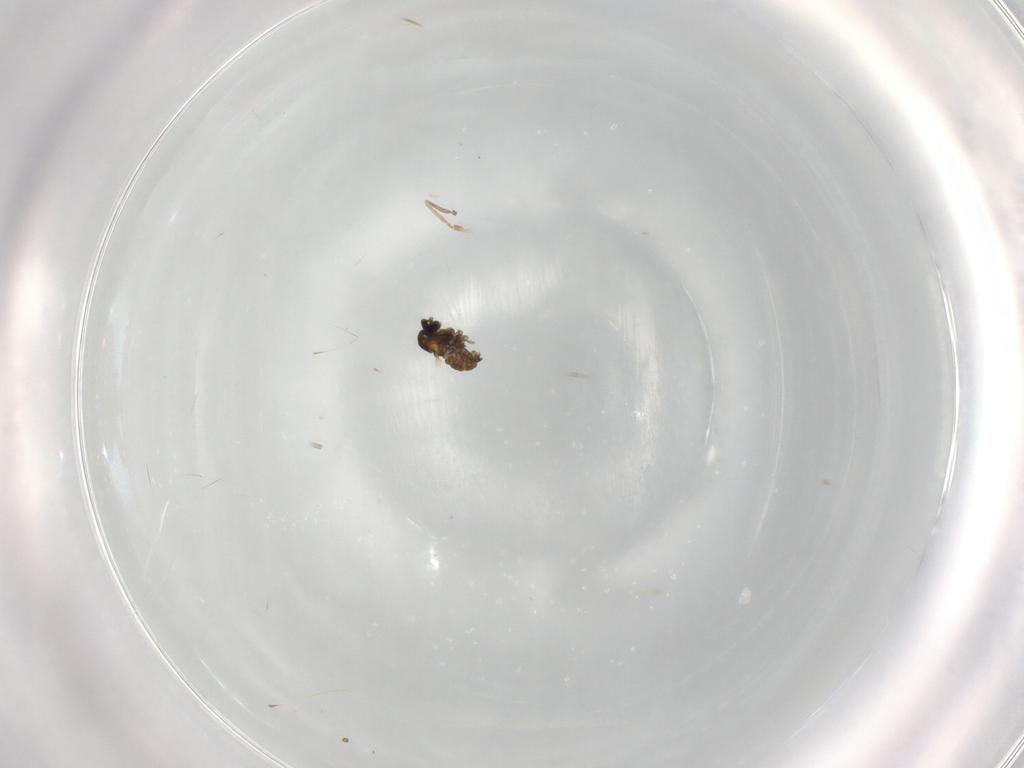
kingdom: Animalia
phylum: Arthropoda
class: Insecta
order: Diptera
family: Cecidomyiidae
